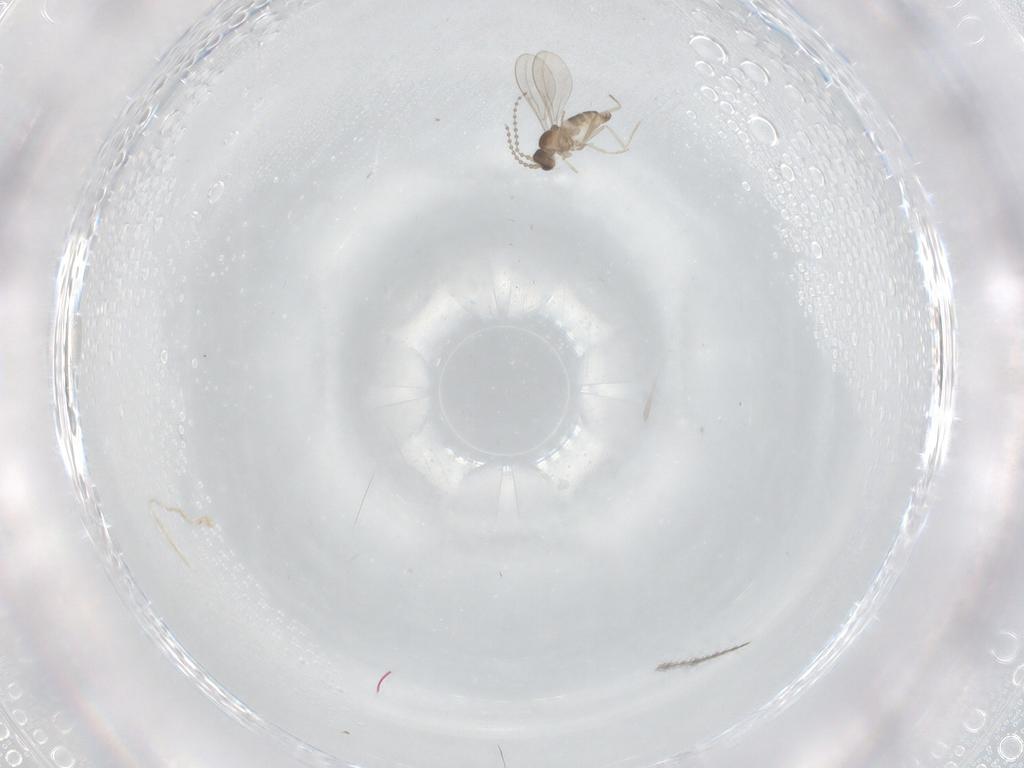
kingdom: Animalia
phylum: Arthropoda
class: Insecta
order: Diptera
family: Cecidomyiidae
